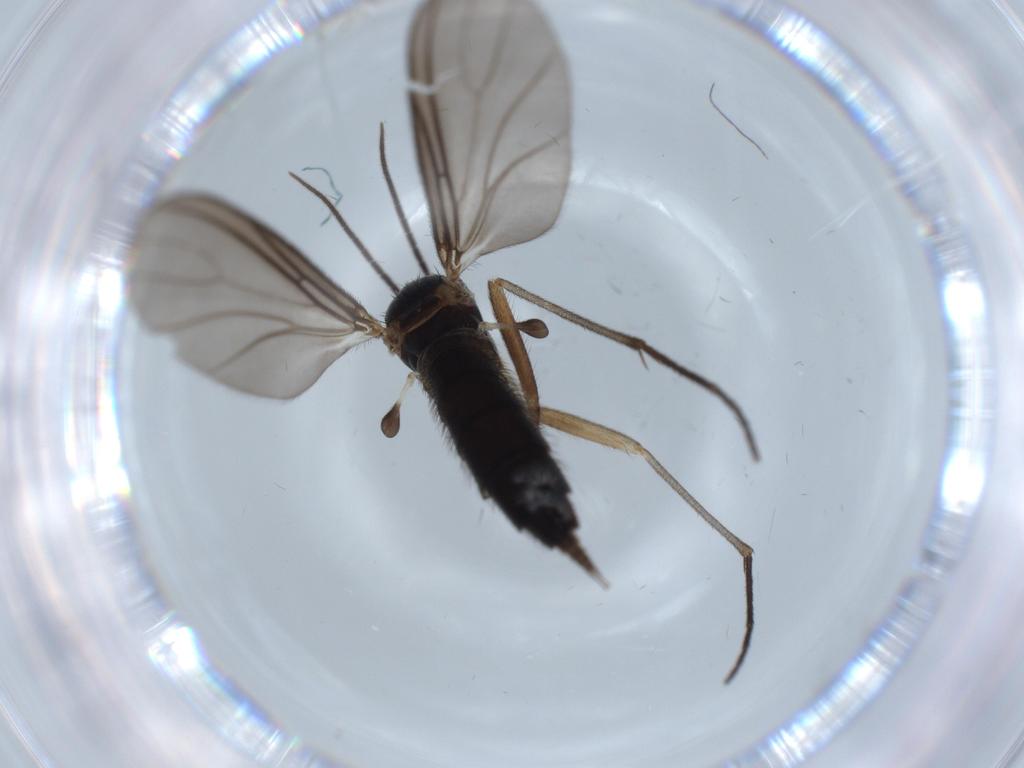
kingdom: Animalia
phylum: Arthropoda
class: Insecta
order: Diptera
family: Sciaridae
